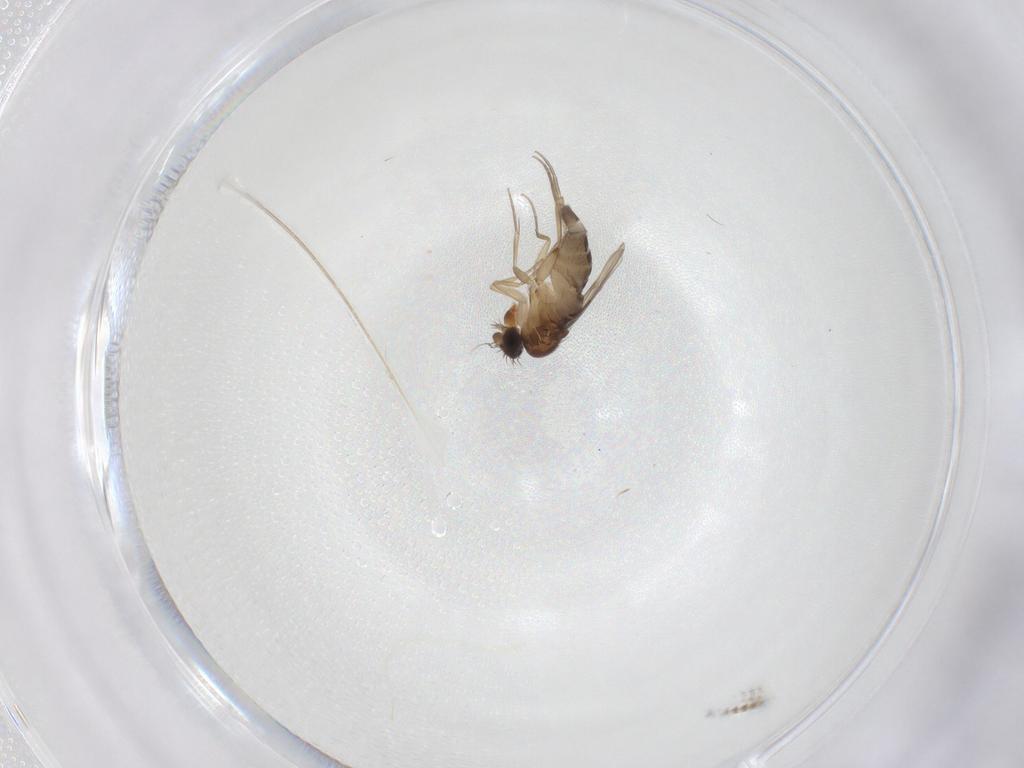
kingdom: Animalia
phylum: Arthropoda
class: Insecta
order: Diptera
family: Phoridae
